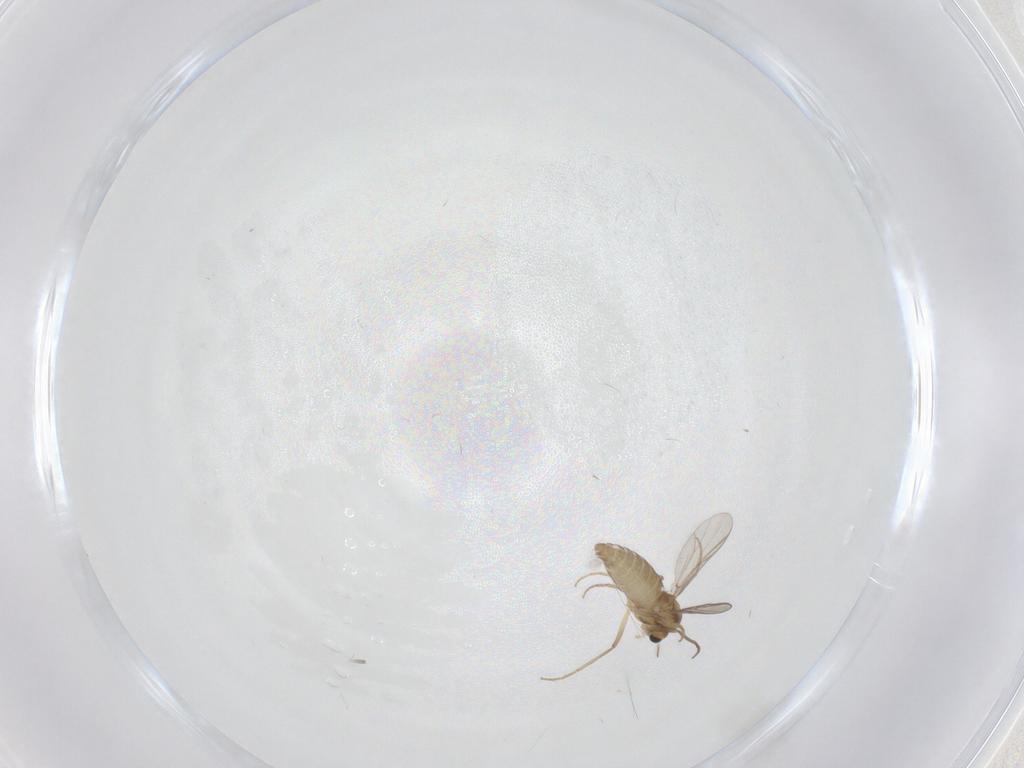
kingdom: Animalia
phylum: Arthropoda
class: Insecta
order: Diptera
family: Chironomidae
